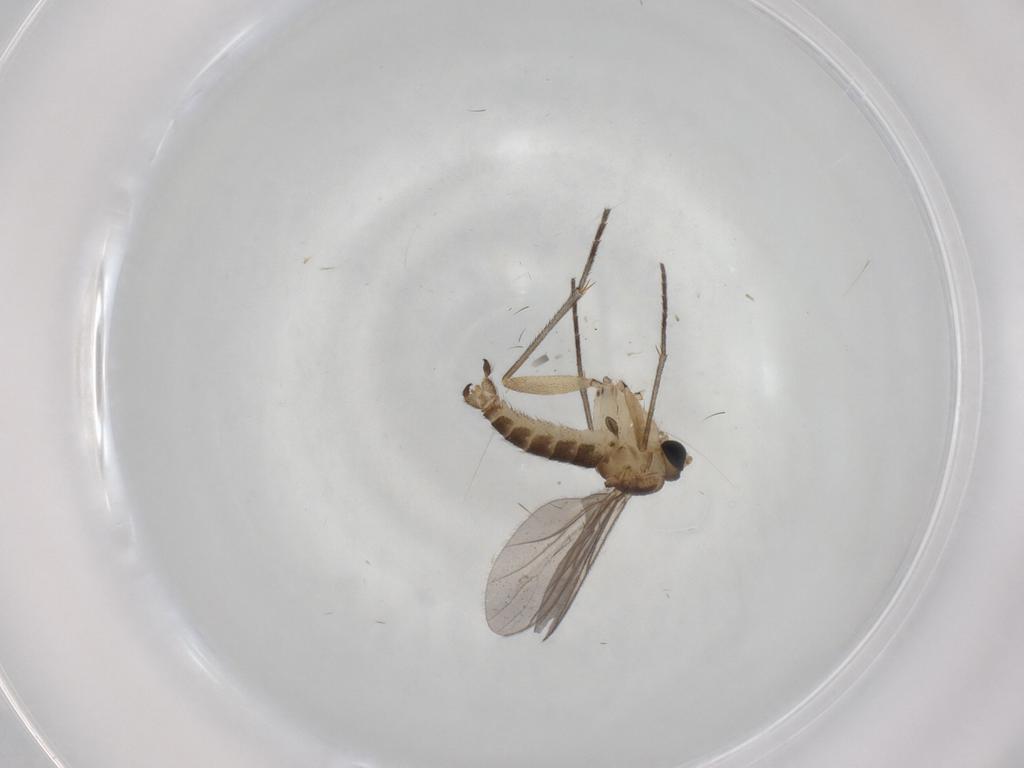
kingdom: Animalia
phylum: Arthropoda
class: Insecta
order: Diptera
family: Sciaridae
